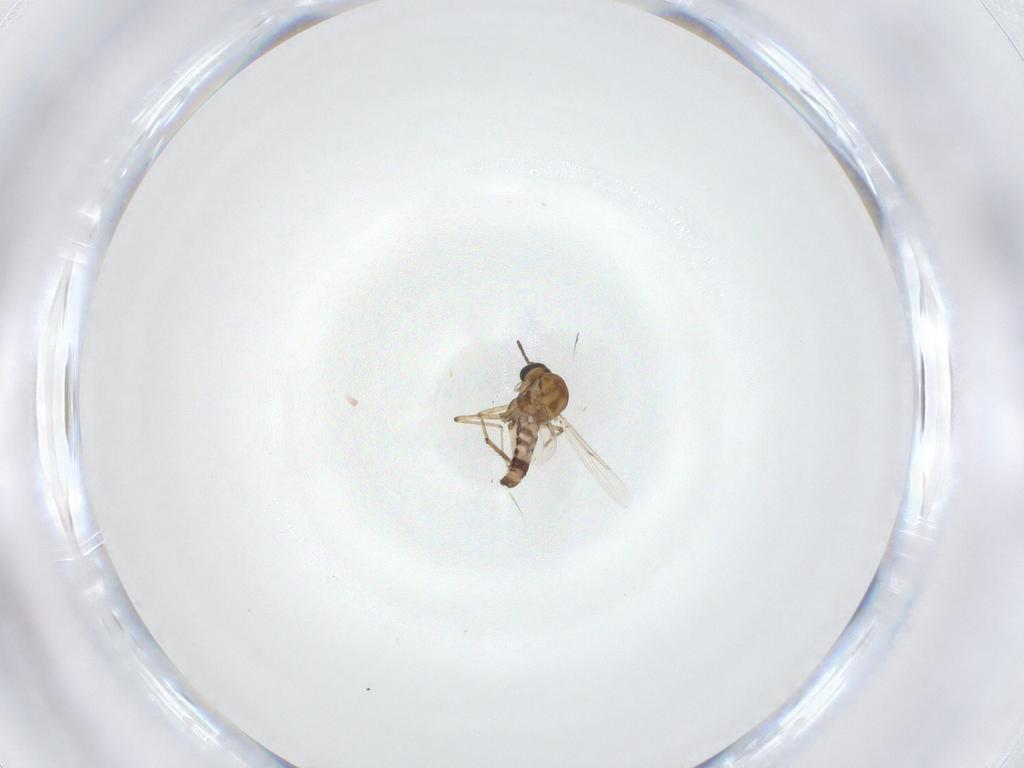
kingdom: Animalia
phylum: Arthropoda
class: Insecta
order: Diptera
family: Ceratopogonidae
